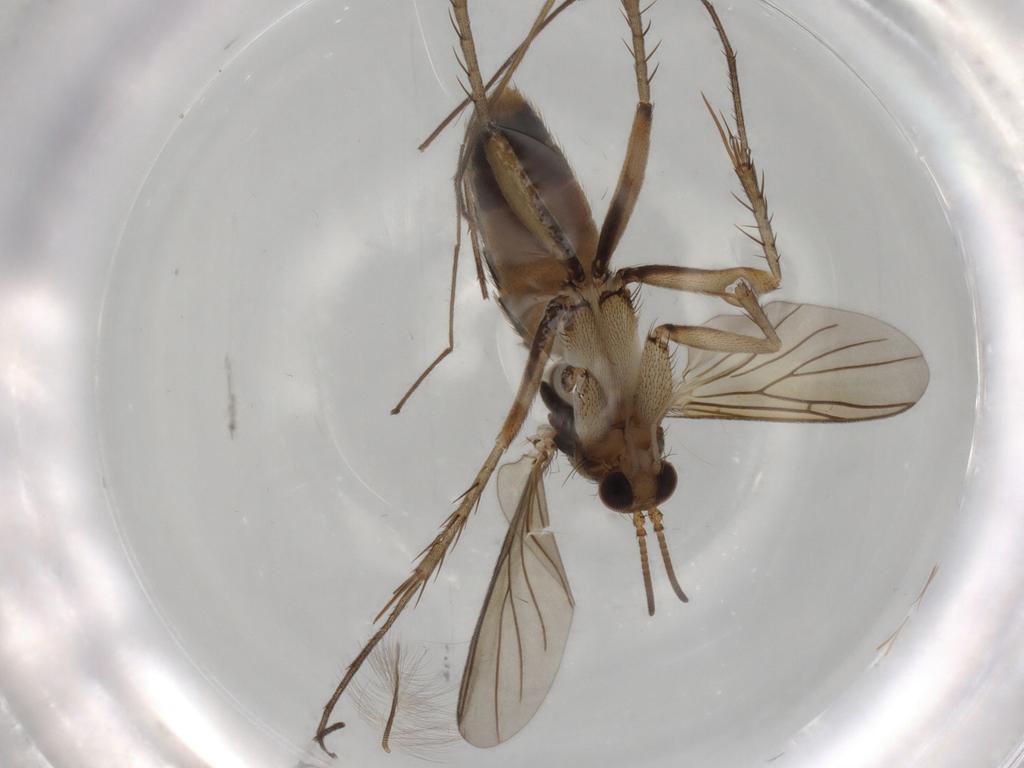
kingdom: Animalia
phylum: Arthropoda
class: Insecta
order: Diptera
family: Mycetophilidae
